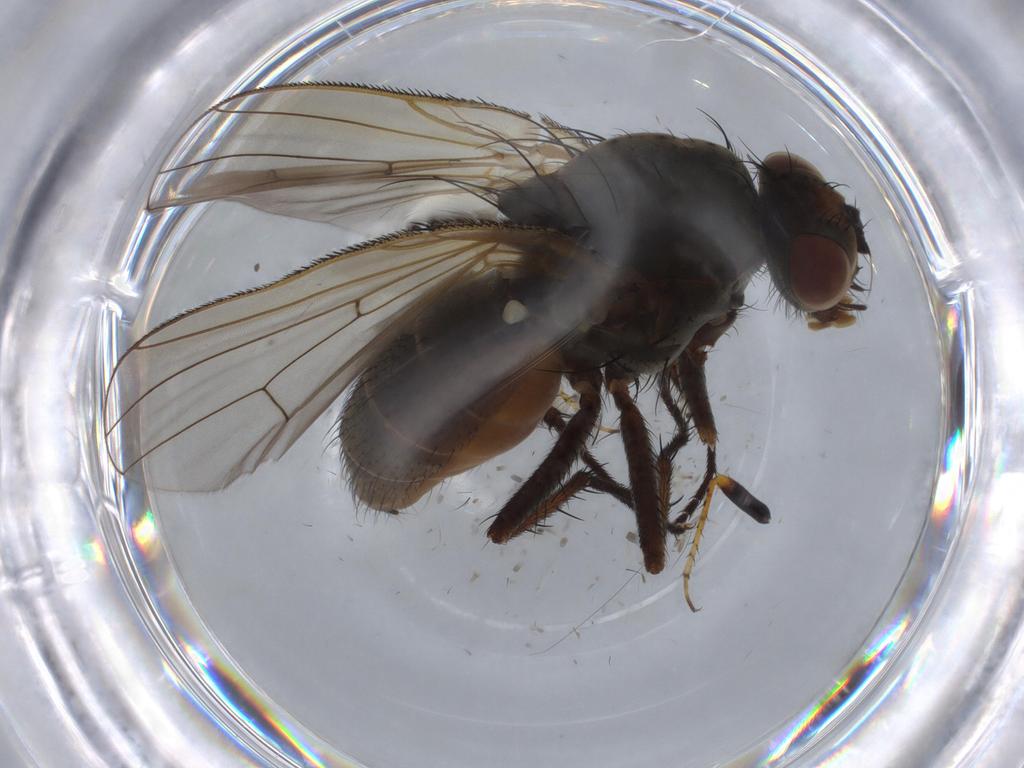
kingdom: Animalia
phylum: Arthropoda
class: Insecta
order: Diptera
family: Anthomyiidae
